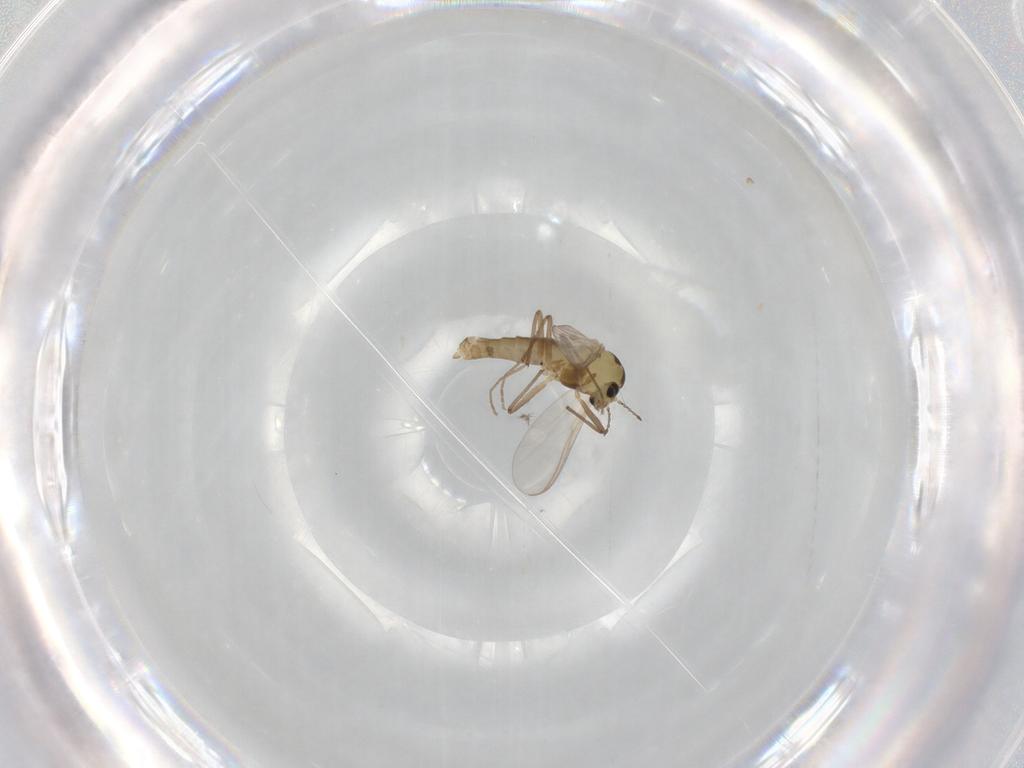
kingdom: Animalia
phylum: Arthropoda
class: Insecta
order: Diptera
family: Chironomidae
